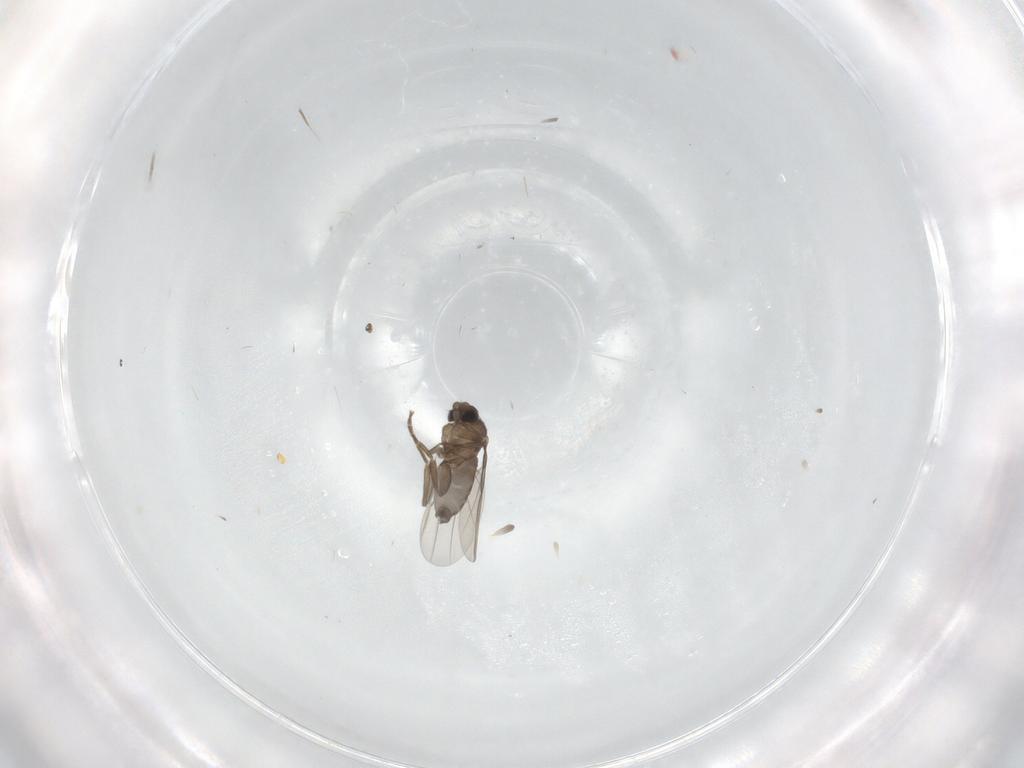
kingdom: Animalia
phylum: Arthropoda
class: Insecta
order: Diptera
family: Phoridae
